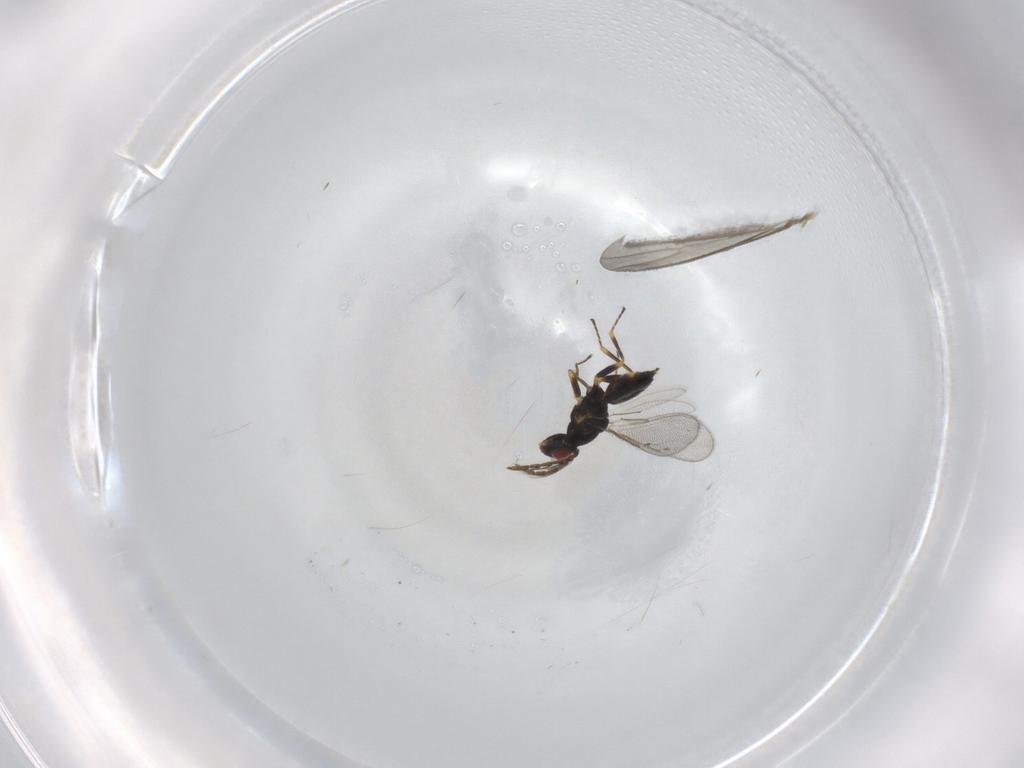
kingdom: Animalia
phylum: Arthropoda
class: Insecta
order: Hymenoptera
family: Eulophidae
